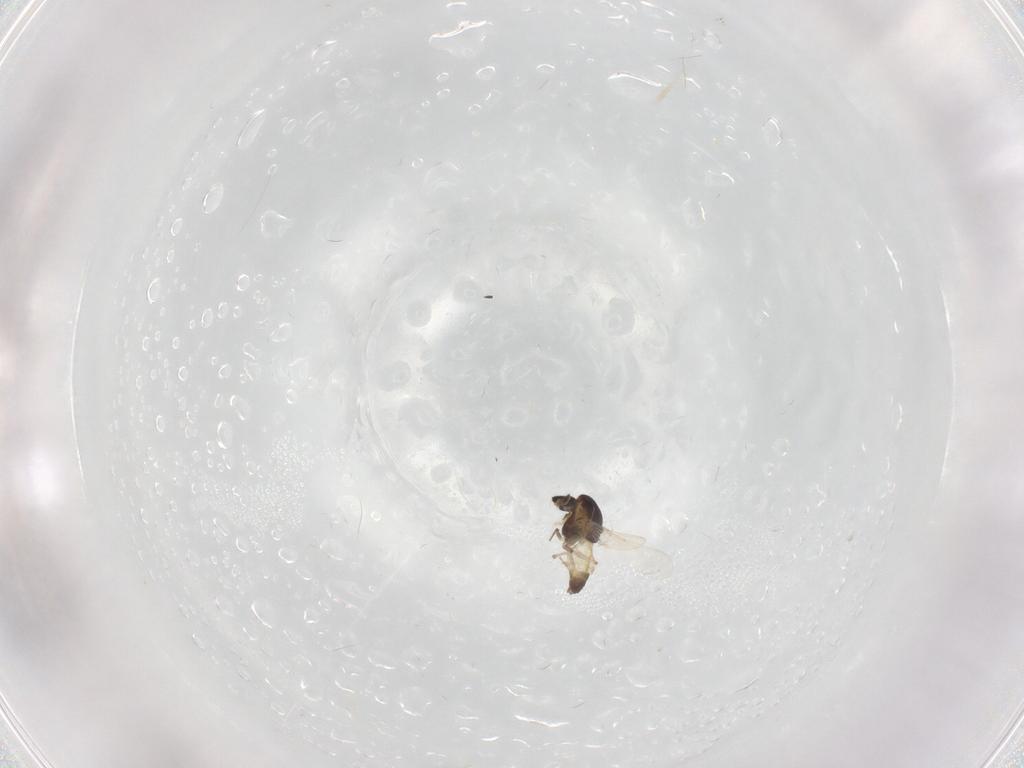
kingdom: Animalia
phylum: Arthropoda
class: Insecta
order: Diptera
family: Chironomidae
